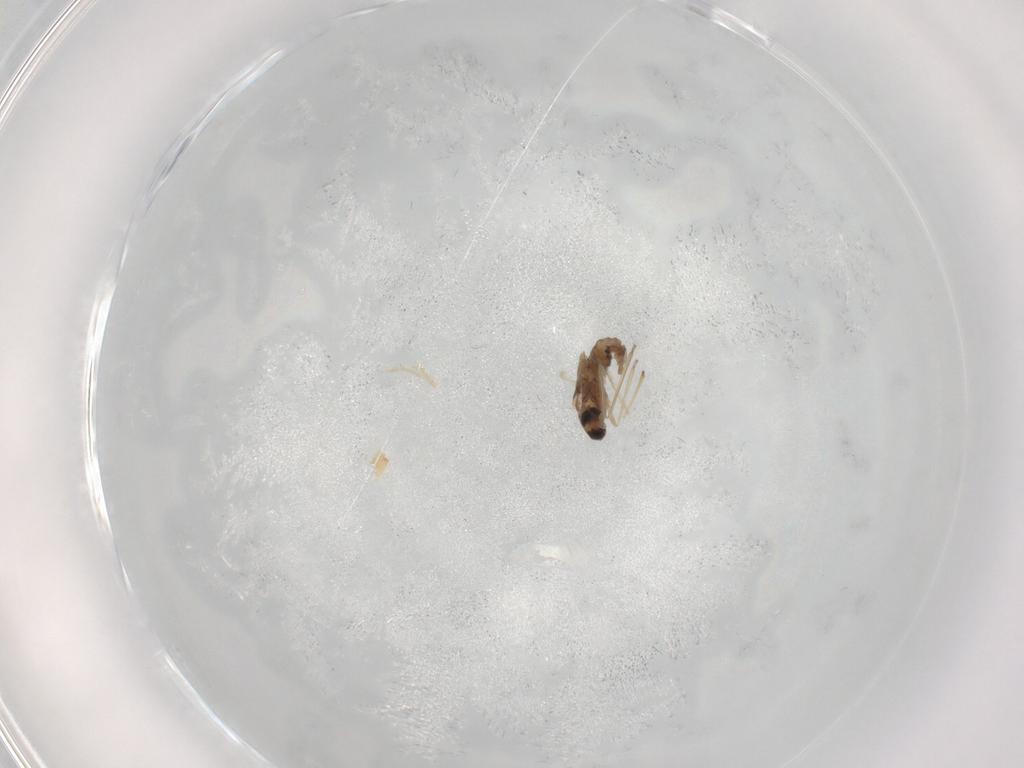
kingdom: Animalia
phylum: Arthropoda
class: Insecta
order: Diptera
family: Cecidomyiidae
